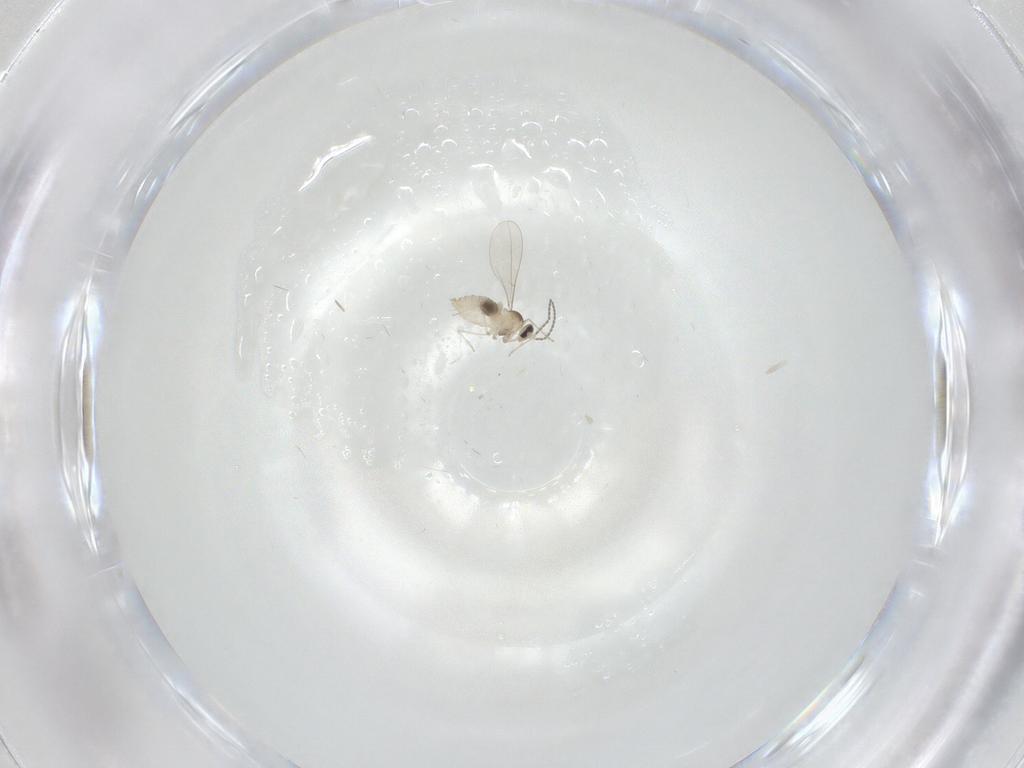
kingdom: Animalia
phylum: Arthropoda
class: Insecta
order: Diptera
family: Cecidomyiidae
